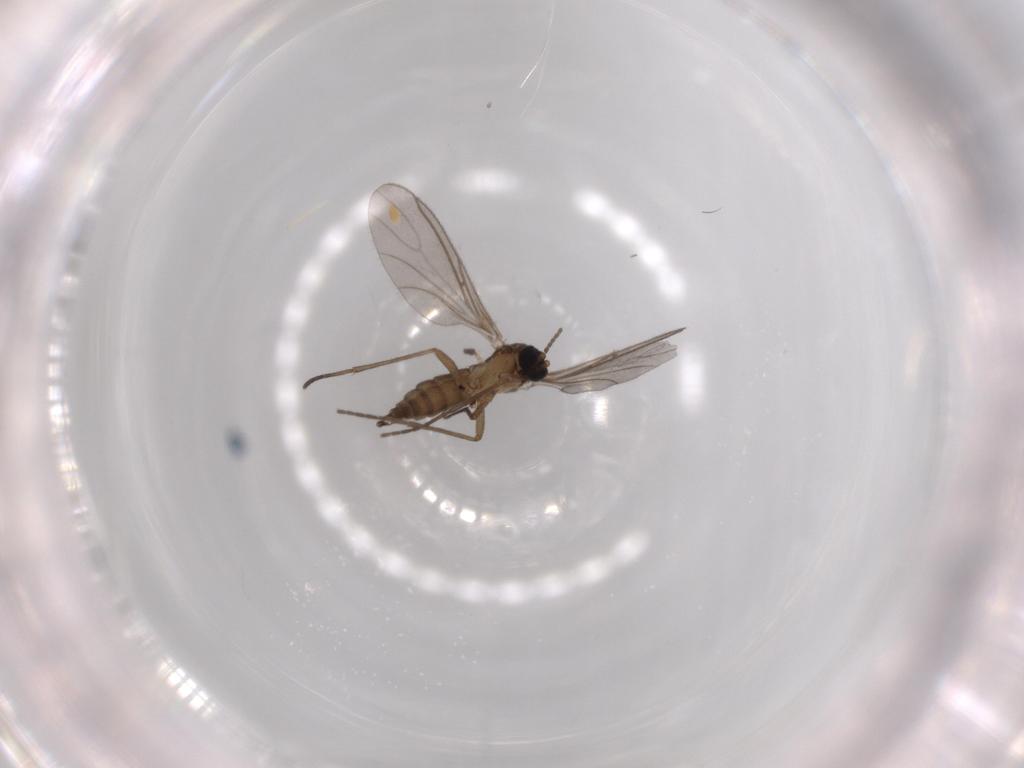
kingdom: Animalia
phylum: Arthropoda
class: Insecta
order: Diptera
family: Sciaridae
